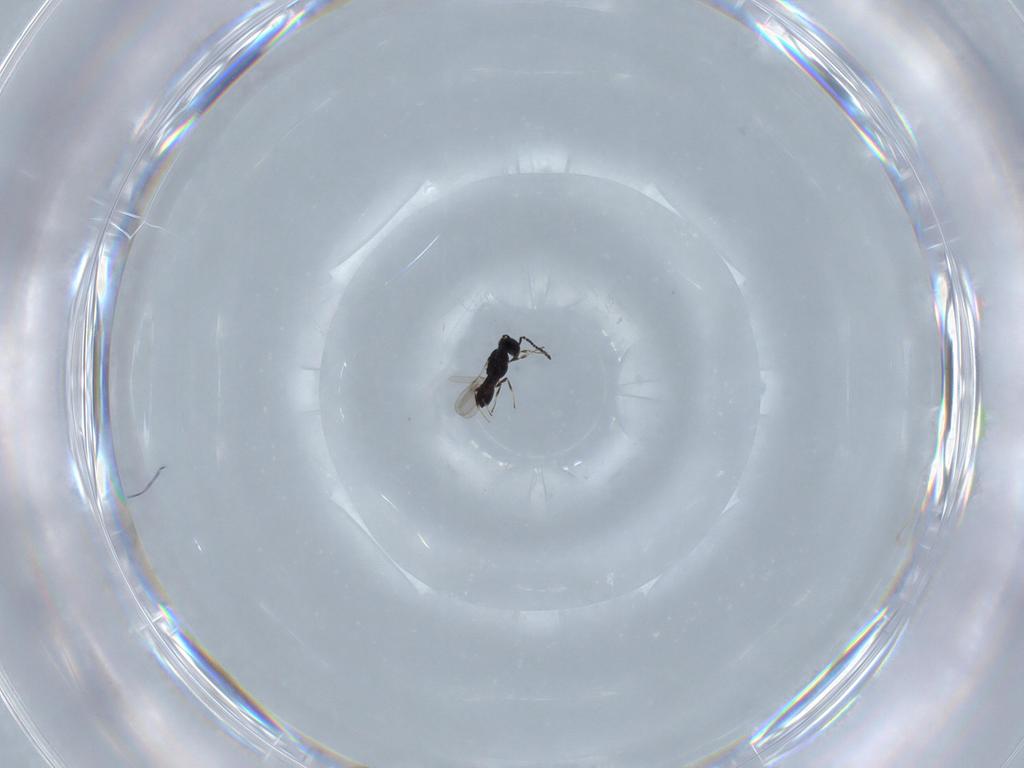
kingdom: Animalia
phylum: Arthropoda
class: Insecta
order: Hymenoptera
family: Scelionidae
